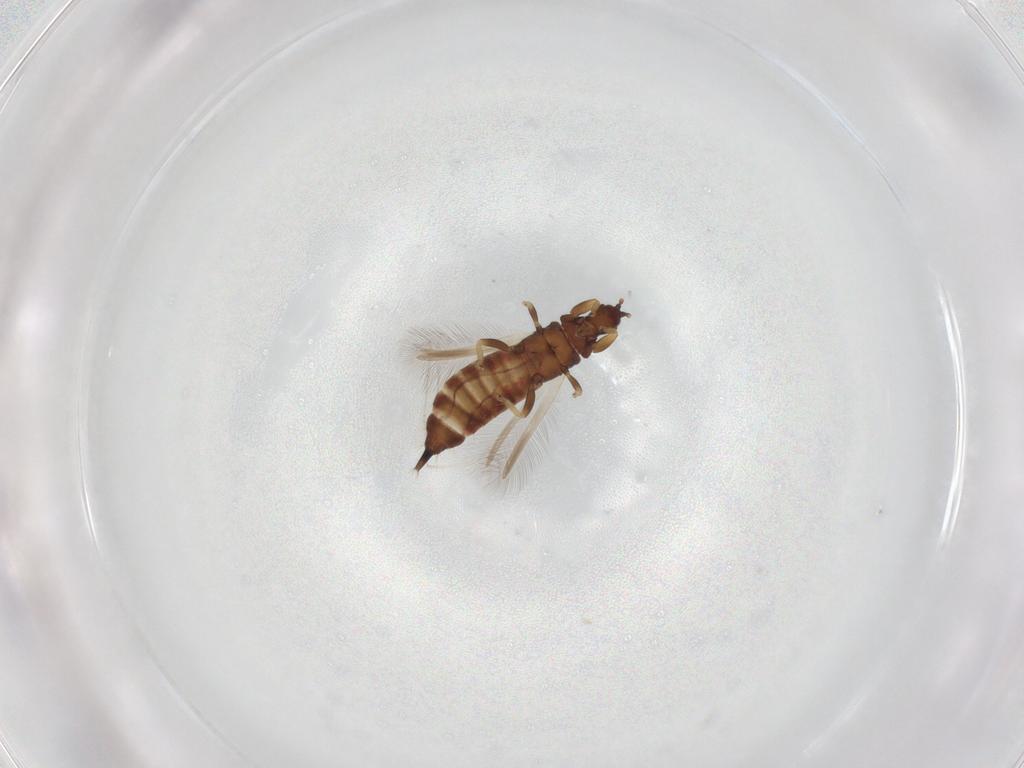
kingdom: Animalia
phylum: Arthropoda
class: Insecta
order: Thysanoptera
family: Phlaeothripidae
